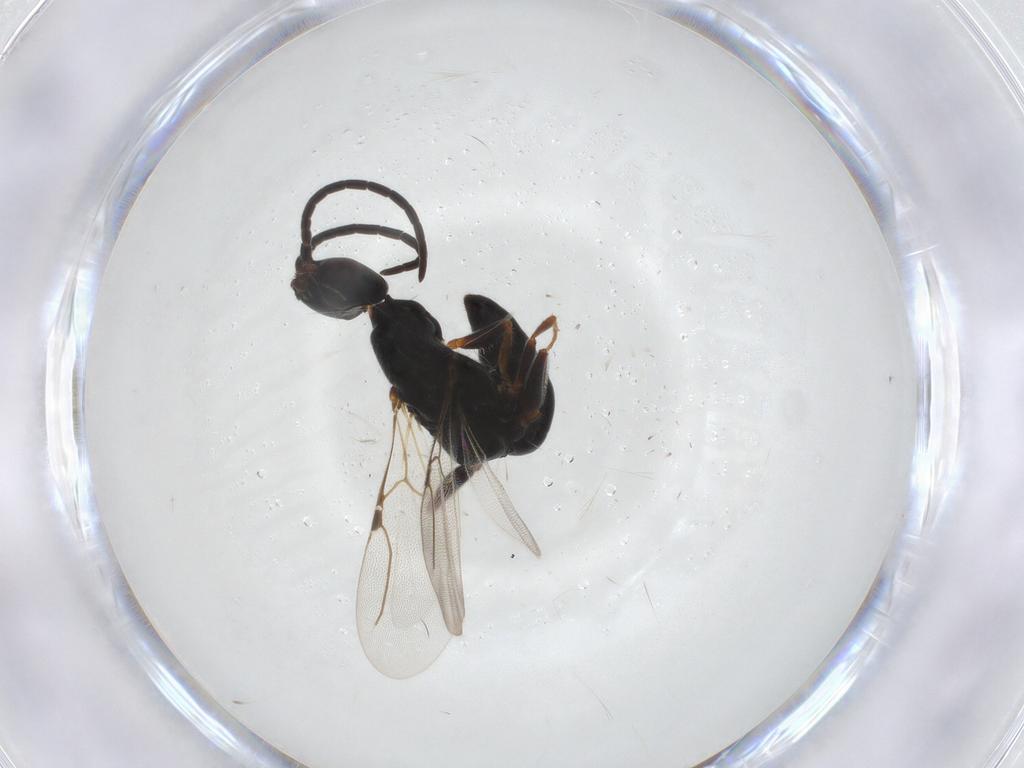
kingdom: Animalia
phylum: Arthropoda
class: Insecta
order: Hymenoptera
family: Bethylidae
